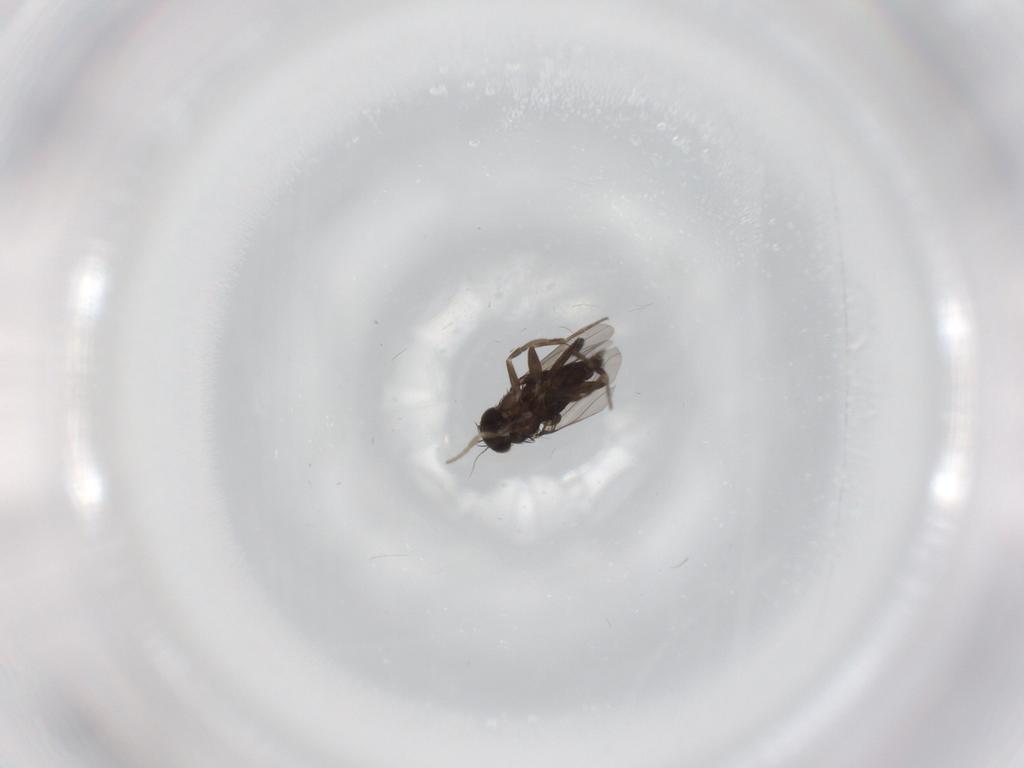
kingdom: Animalia
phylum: Arthropoda
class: Insecta
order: Diptera
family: Phoridae
